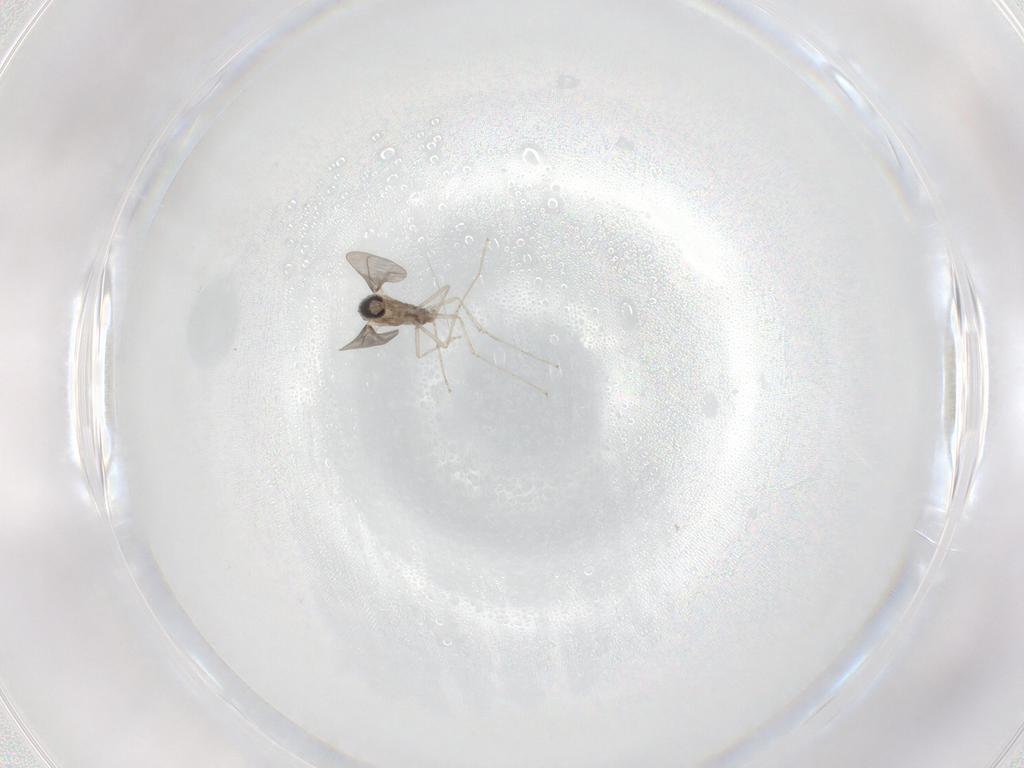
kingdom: Animalia
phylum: Arthropoda
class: Insecta
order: Diptera
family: Cecidomyiidae
